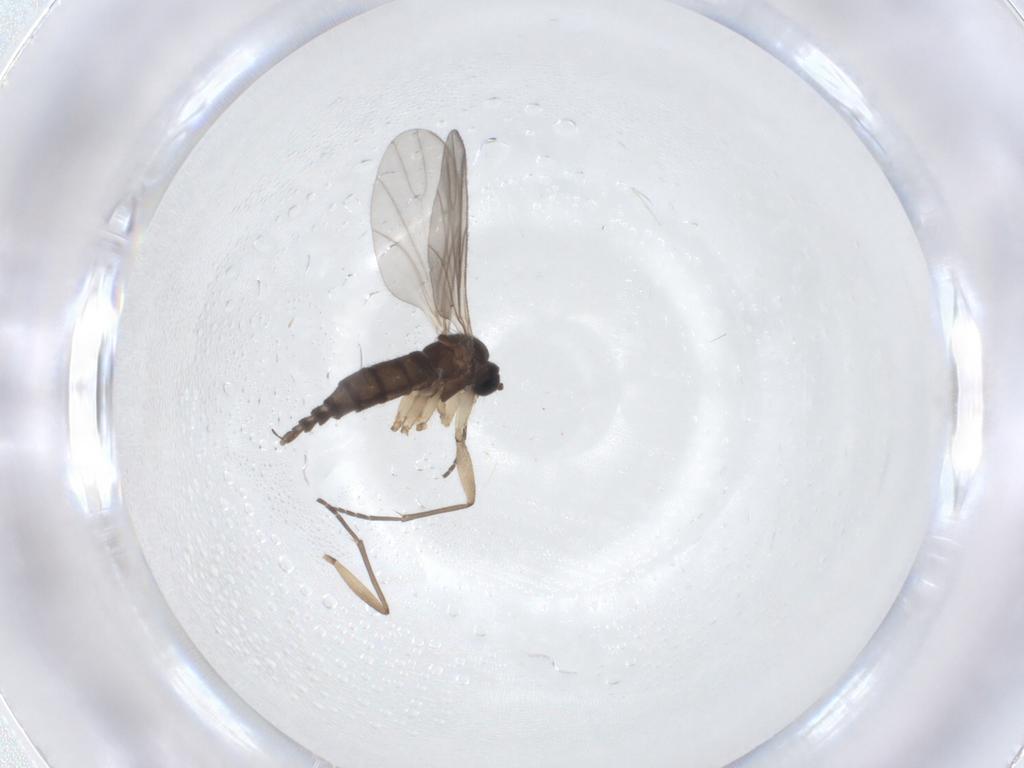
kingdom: Animalia
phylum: Arthropoda
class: Insecta
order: Diptera
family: Sciaridae
